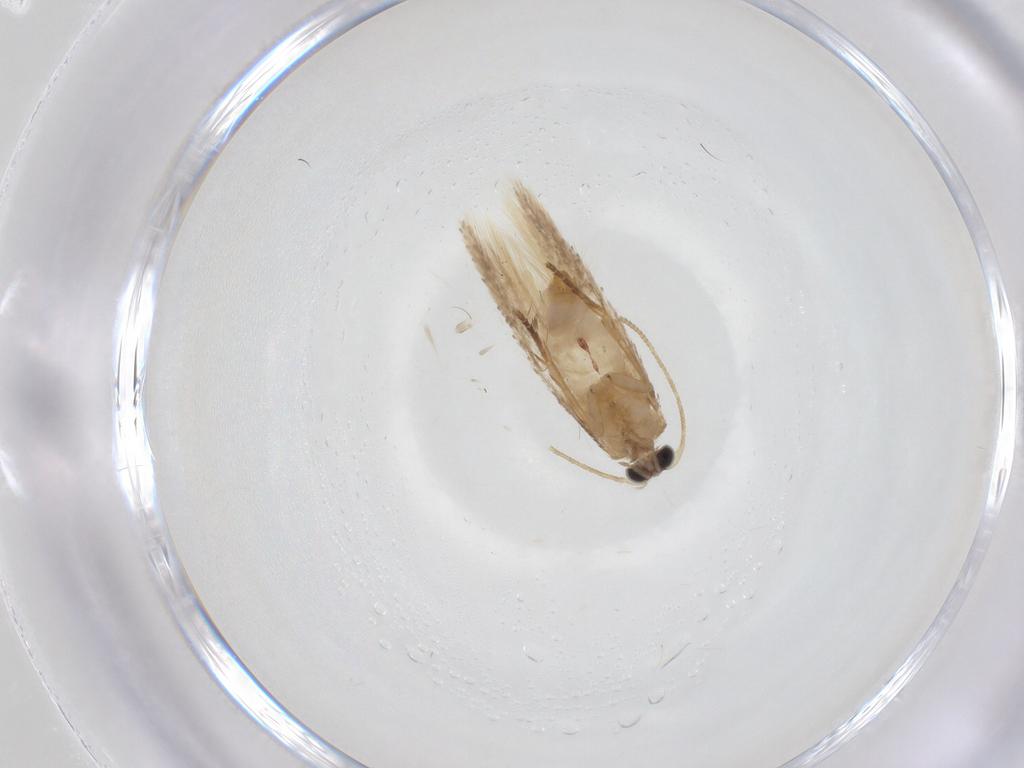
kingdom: Animalia
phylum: Arthropoda
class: Insecta
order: Lepidoptera
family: Nepticulidae
